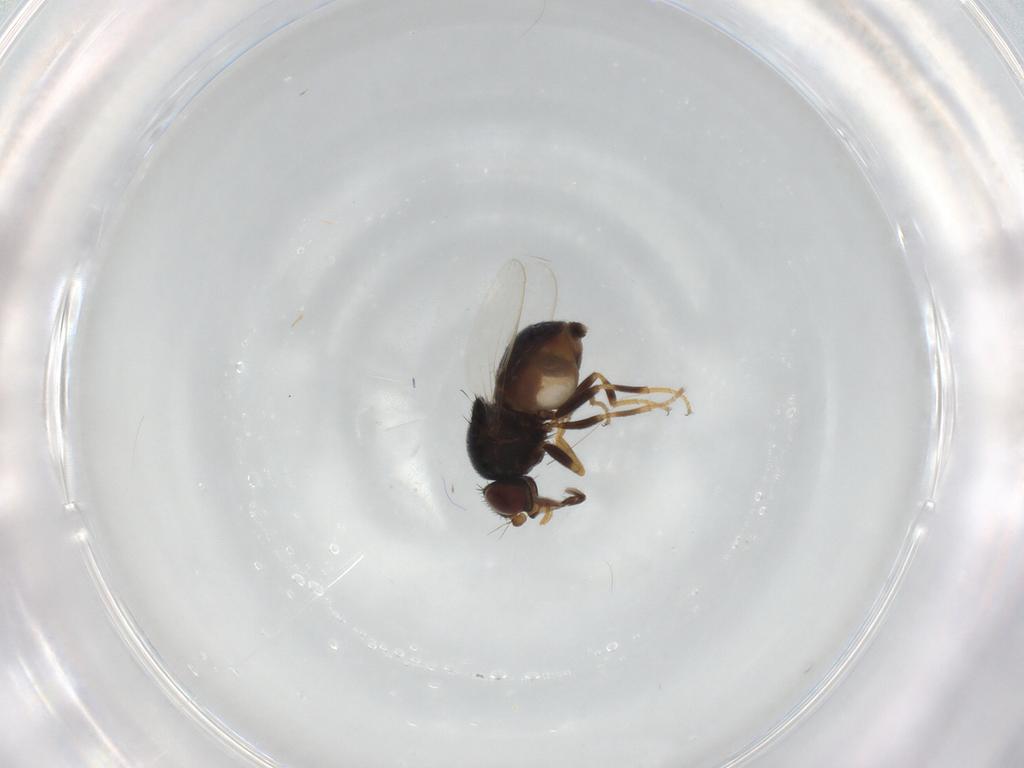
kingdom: Animalia
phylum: Arthropoda
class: Insecta
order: Diptera
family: Chloropidae
